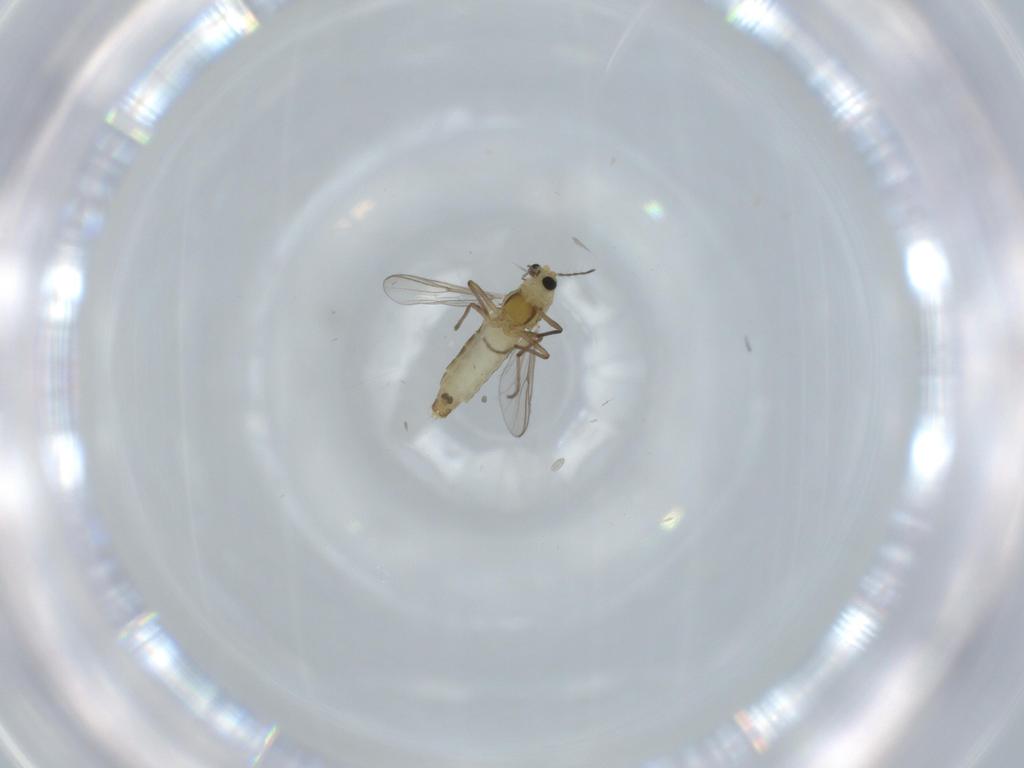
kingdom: Animalia
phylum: Arthropoda
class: Insecta
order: Diptera
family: Chironomidae
